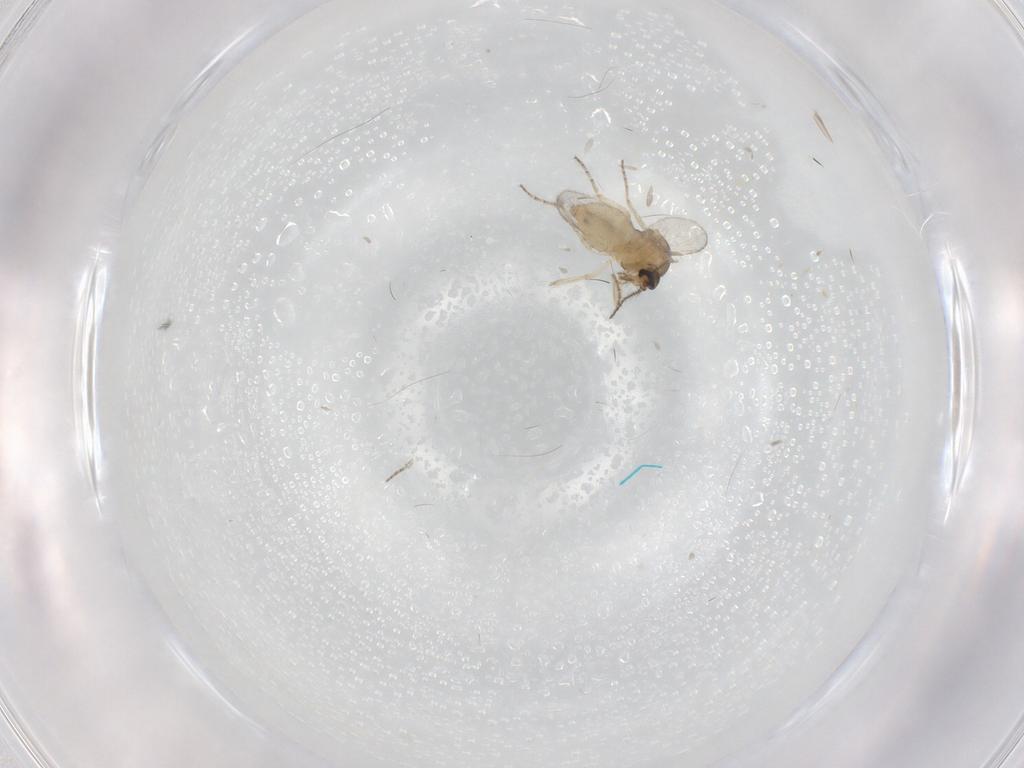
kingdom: Animalia
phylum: Arthropoda
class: Insecta
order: Diptera
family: Ceratopogonidae
